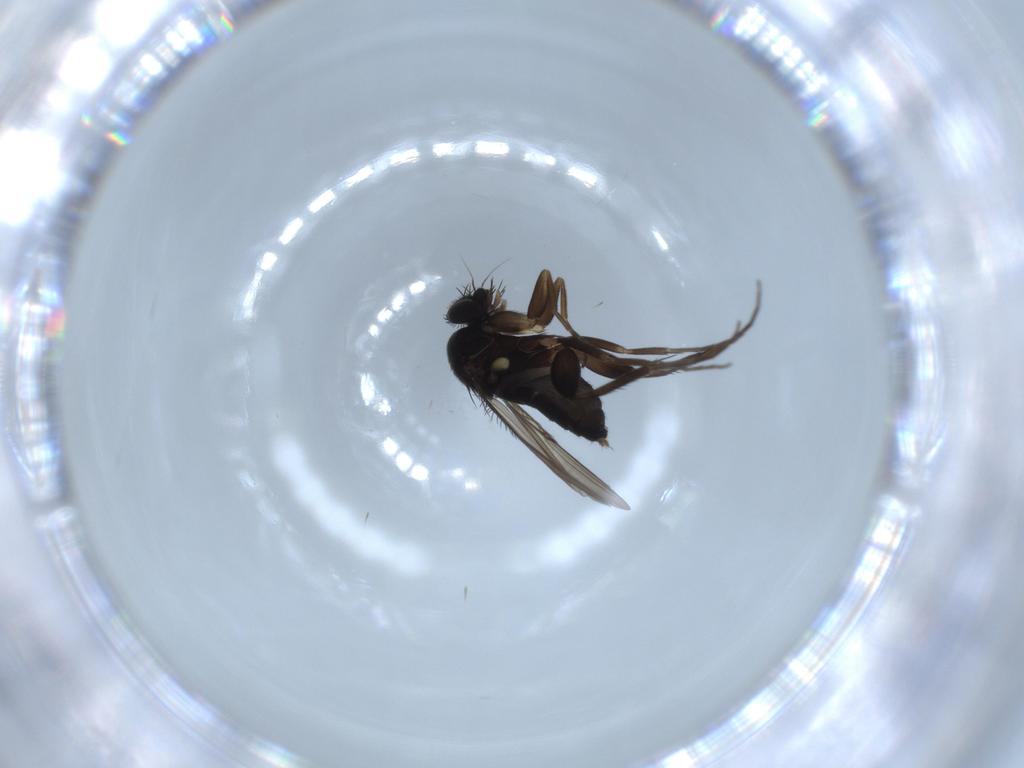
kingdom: Animalia
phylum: Arthropoda
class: Insecta
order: Diptera
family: Phoridae
